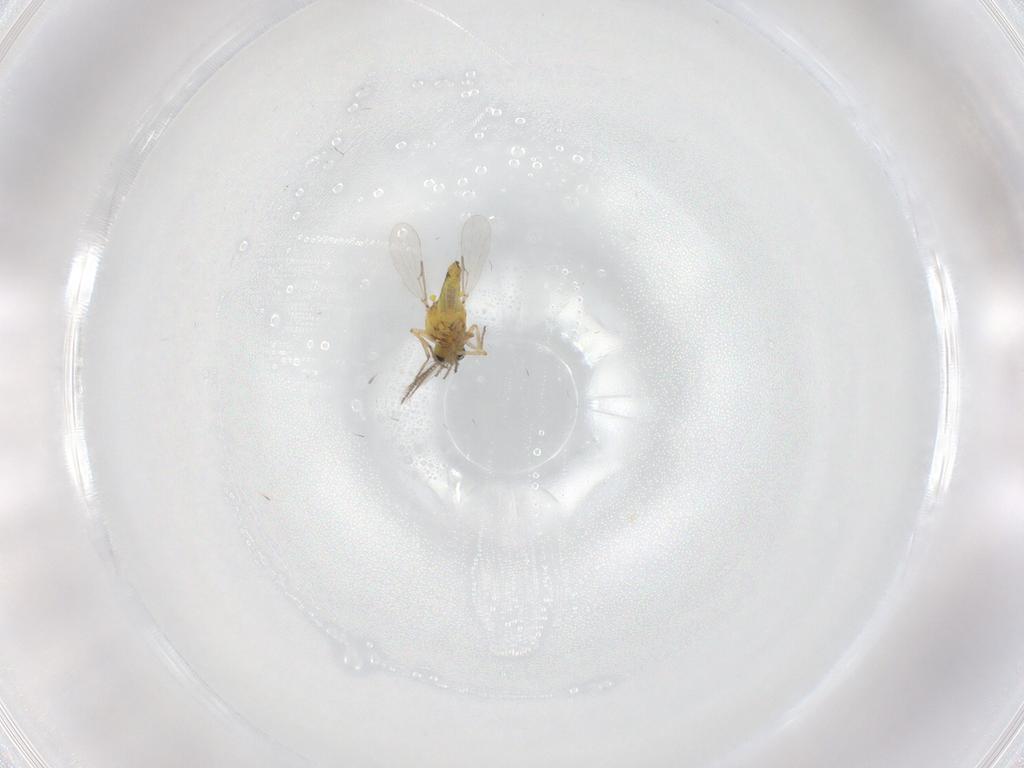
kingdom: Animalia
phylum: Arthropoda
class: Insecta
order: Diptera
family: Ceratopogonidae
